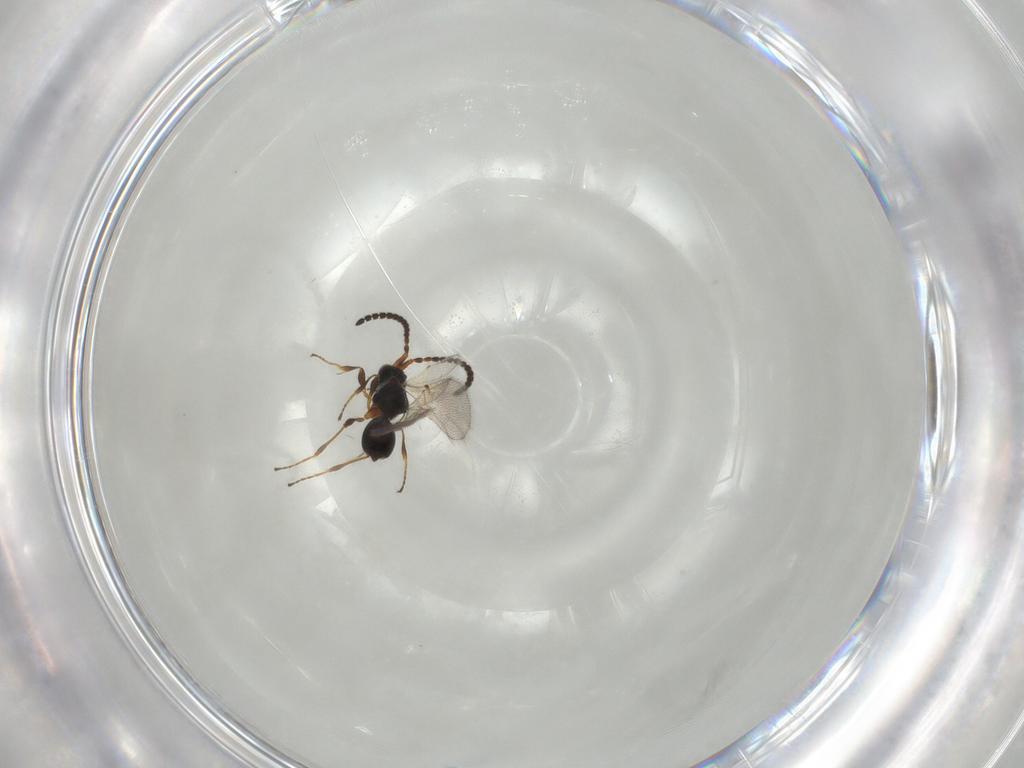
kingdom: Animalia
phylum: Arthropoda
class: Insecta
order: Hymenoptera
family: Diapriidae
